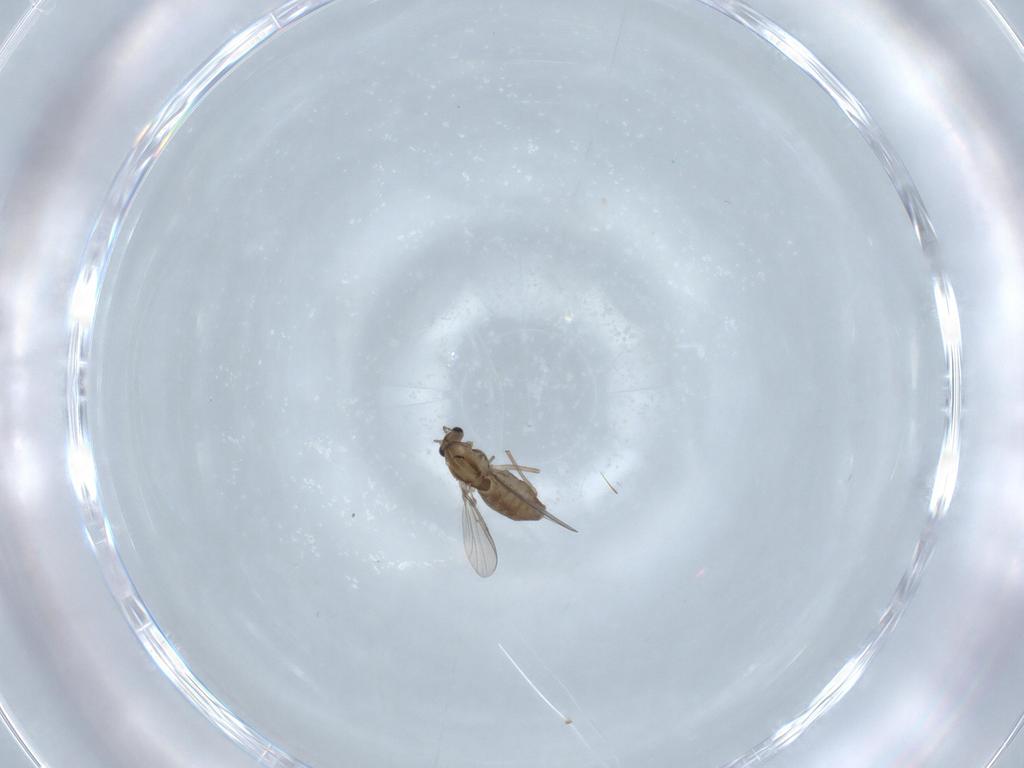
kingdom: Animalia
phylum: Arthropoda
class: Insecta
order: Diptera
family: Chironomidae
